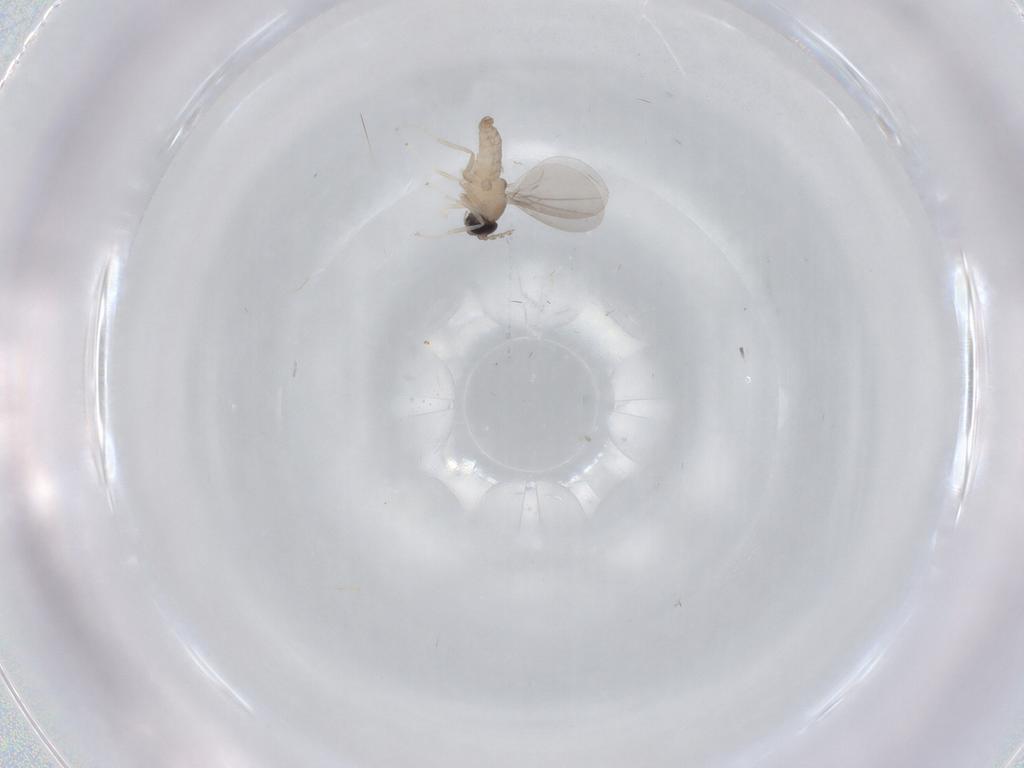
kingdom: Animalia
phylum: Arthropoda
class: Insecta
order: Diptera
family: Cecidomyiidae
